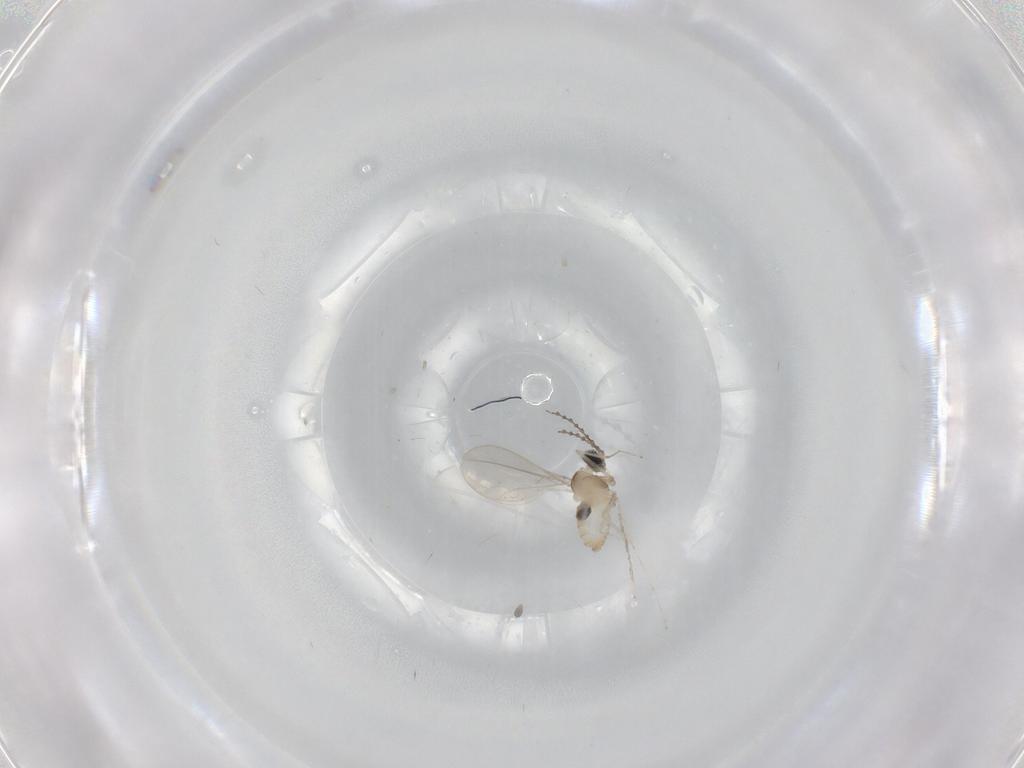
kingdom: Animalia
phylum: Arthropoda
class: Insecta
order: Diptera
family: Cecidomyiidae
